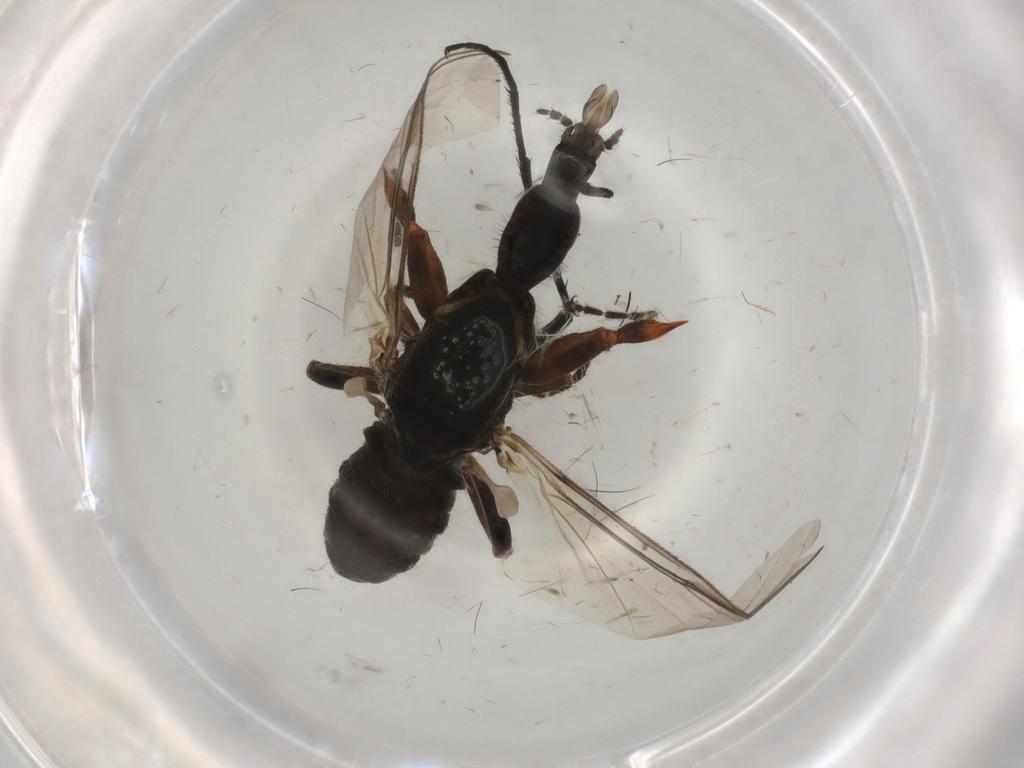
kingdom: Animalia
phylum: Arthropoda
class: Insecta
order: Diptera
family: Bibionidae
